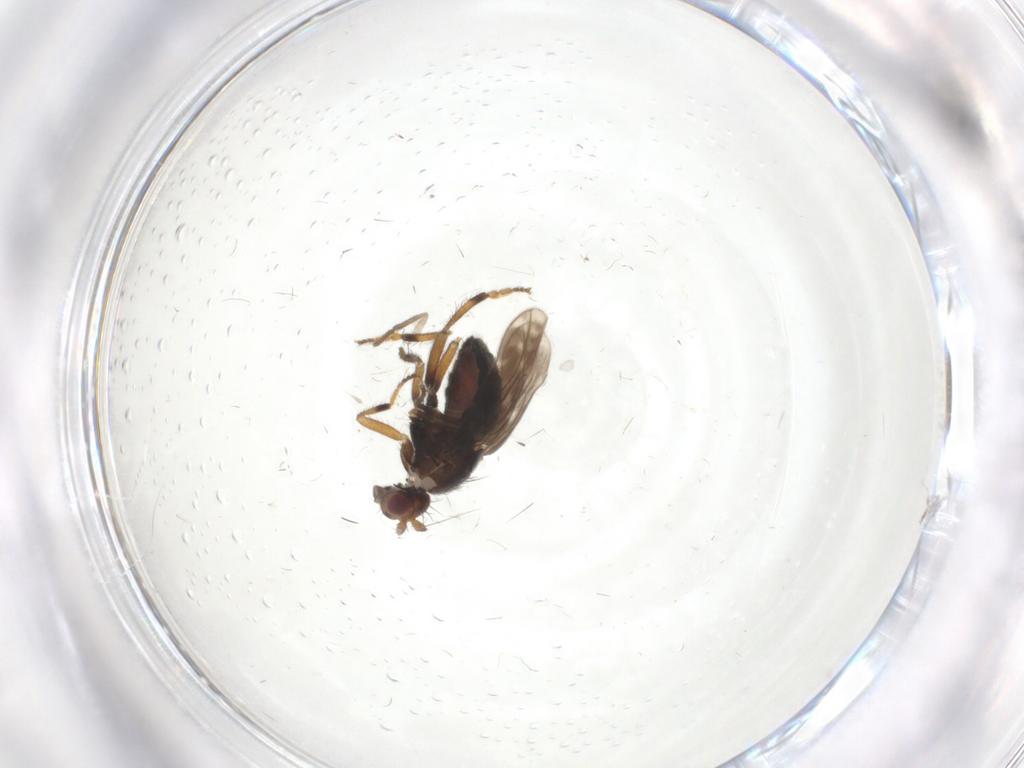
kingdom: Animalia
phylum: Arthropoda
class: Insecta
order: Diptera
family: Sphaeroceridae
